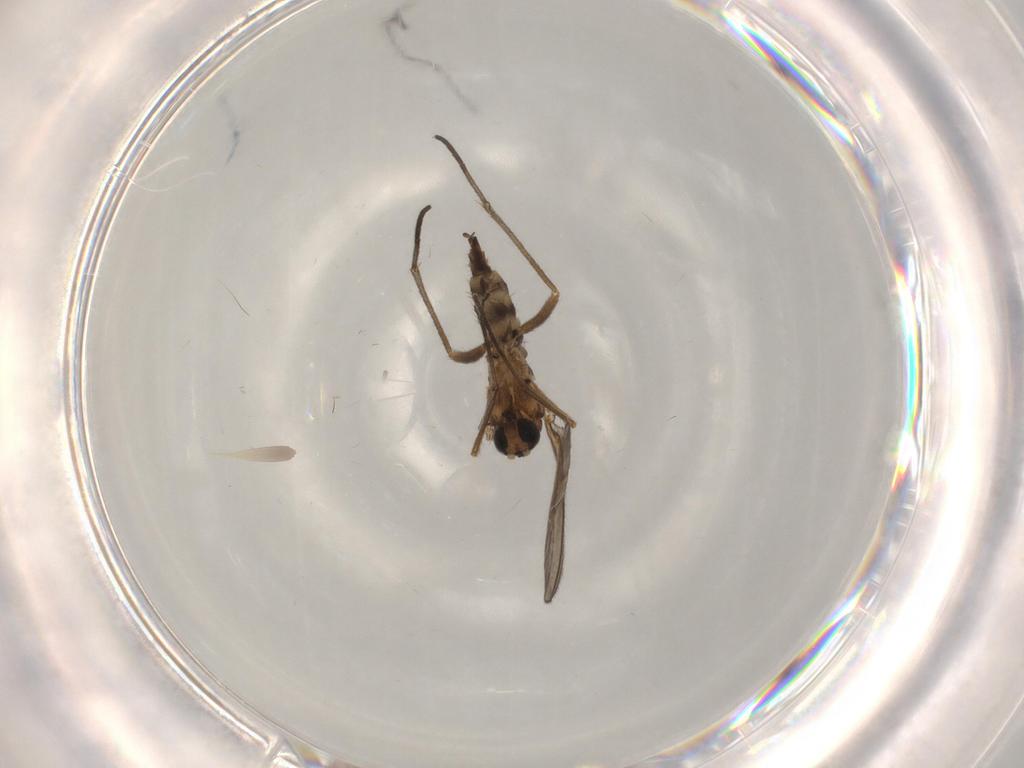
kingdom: Animalia
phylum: Arthropoda
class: Insecta
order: Diptera
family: Sciaridae
